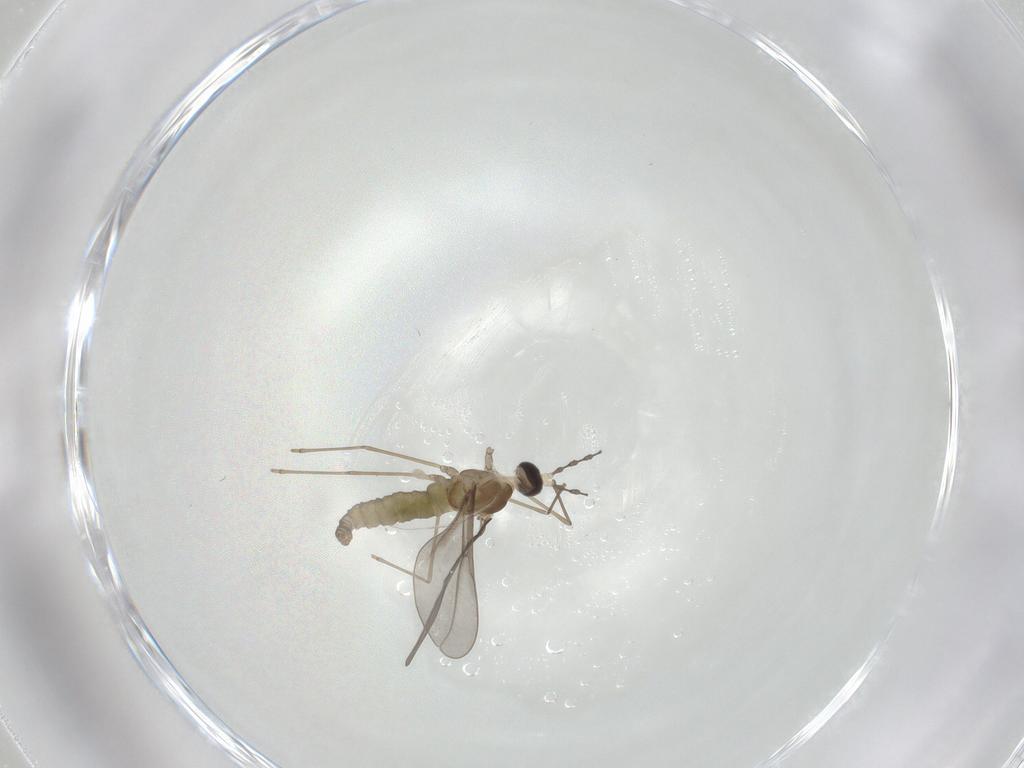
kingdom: Animalia
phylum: Arthropoda
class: Insecta
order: Diptera
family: Cecidomyiidae
